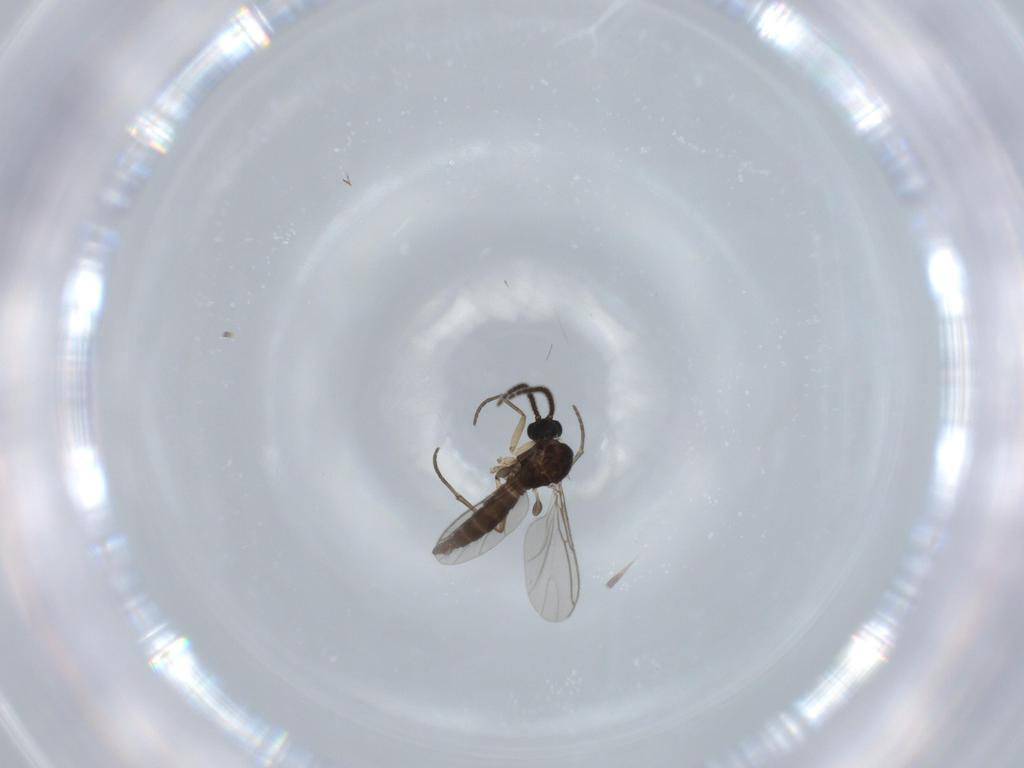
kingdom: Animalia
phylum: Arthropoda
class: Insecta
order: Diptera
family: Sciaridae
